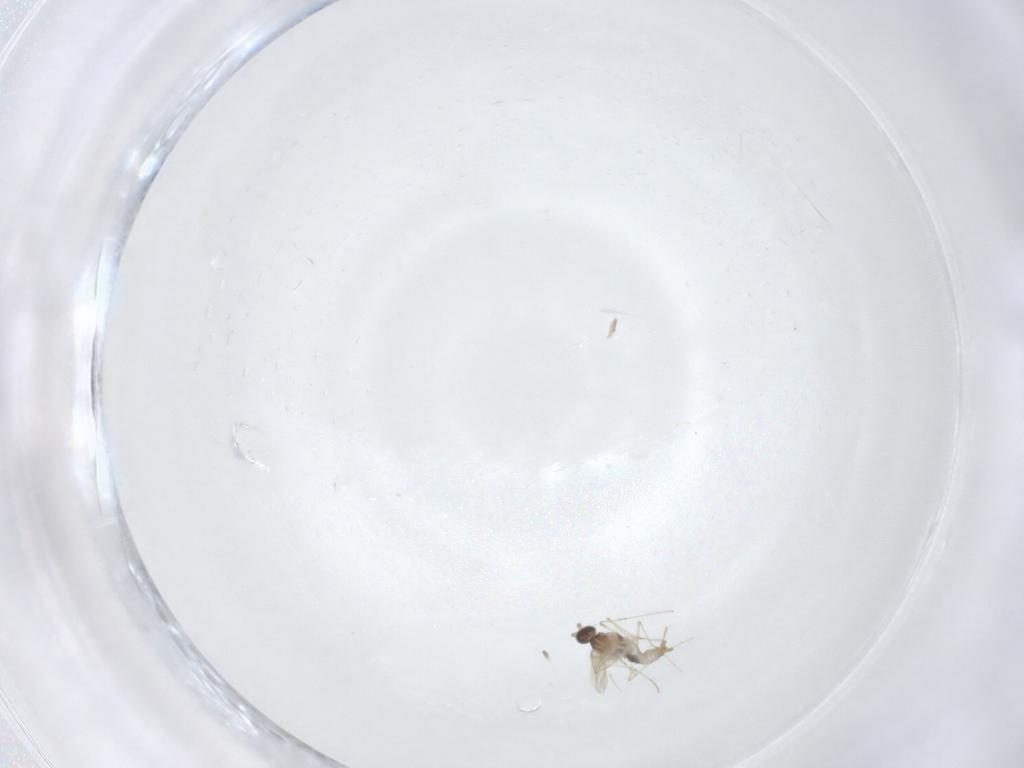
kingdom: Animalia
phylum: Arthropoda
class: Insecta
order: Diptera
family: Cecidomyiidae
